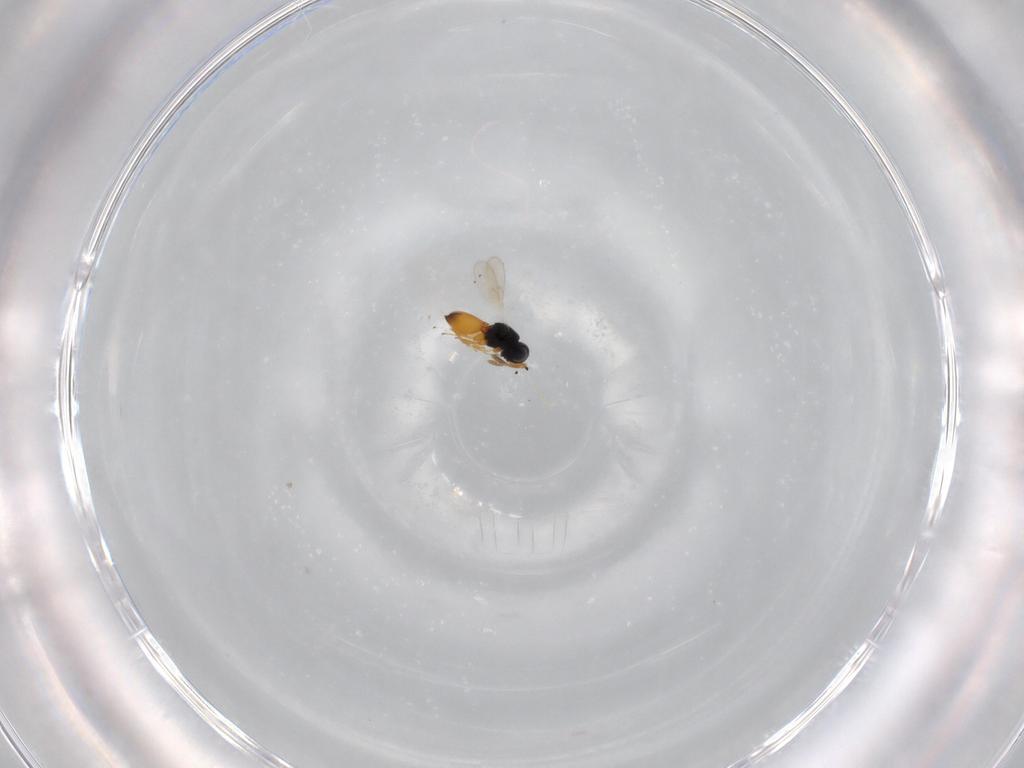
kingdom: Animalia
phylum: Arthropoda
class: Insecta
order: Hymenoptera
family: Scelionidae
